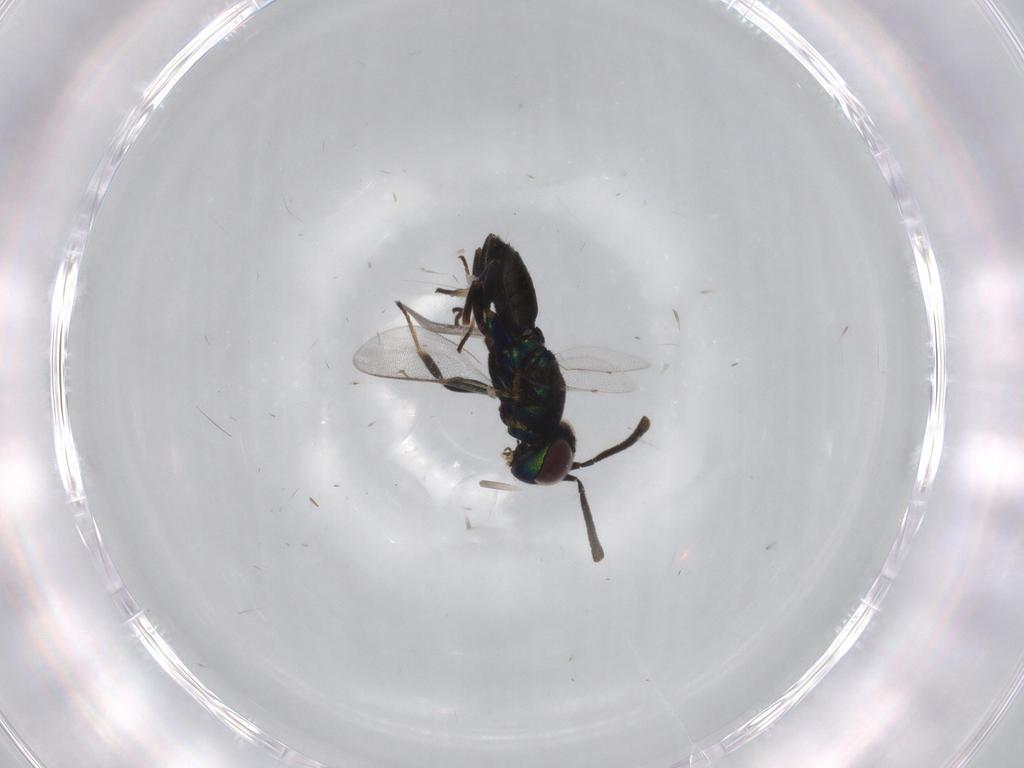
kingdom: Animalia
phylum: Arthropoda
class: Insecta
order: Hymenoptera
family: Eupelmidae
